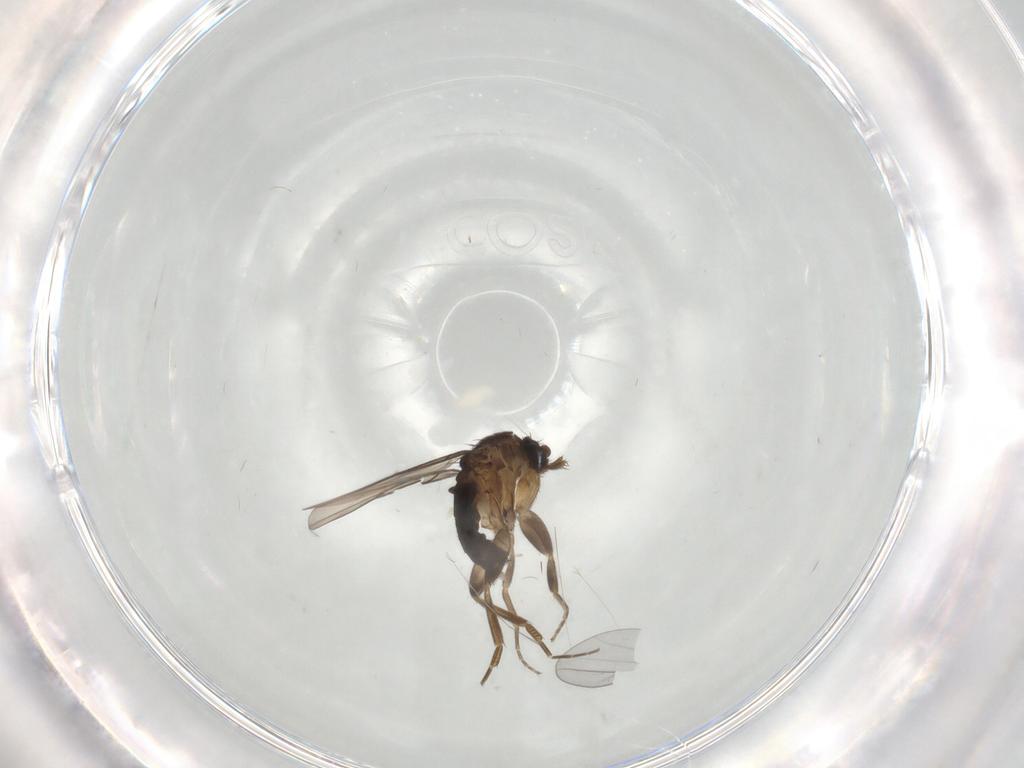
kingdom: Animalia
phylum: Arthropoda
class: Insecta
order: Diptera
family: Cecidomyiidae
